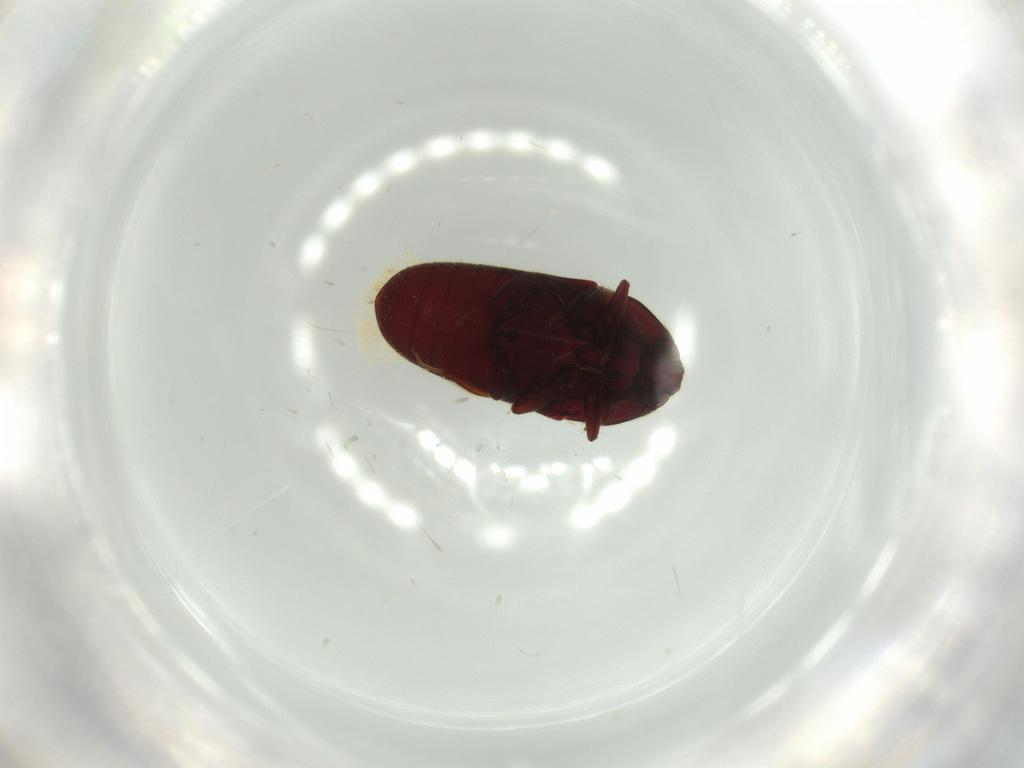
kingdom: Animalia
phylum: Arthropoda
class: Insecta
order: Coleoptera
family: Throscidae
